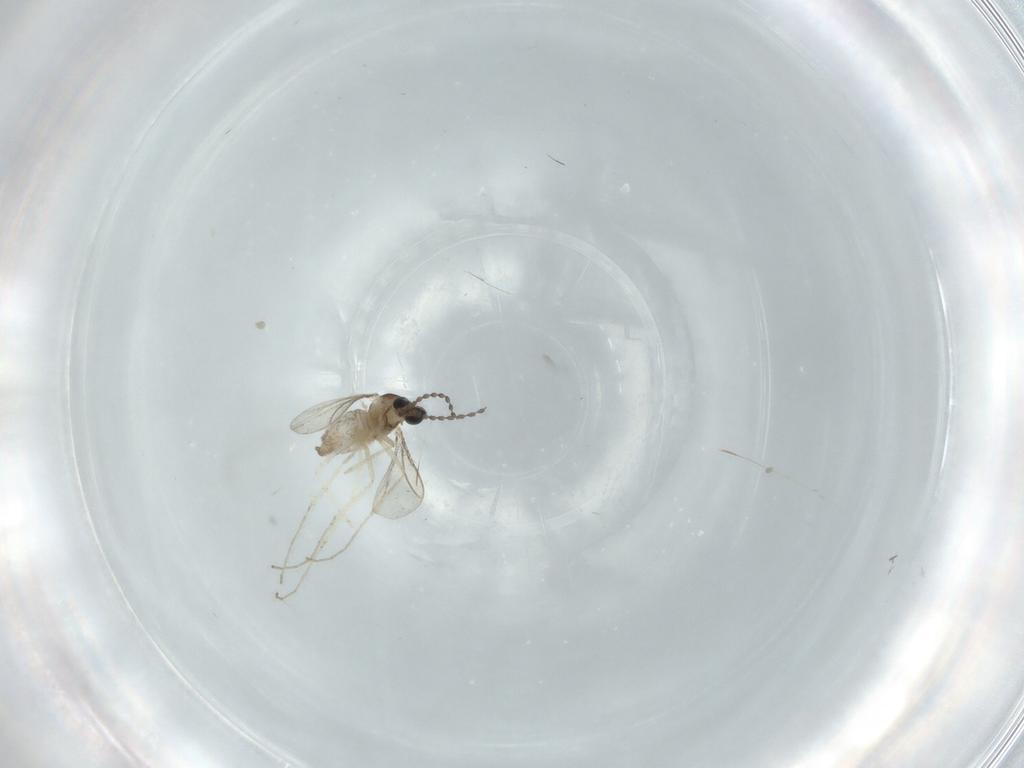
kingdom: Animalia
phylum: Arthropoda
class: Insecta
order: Diptera
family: Cecidomyiidae
